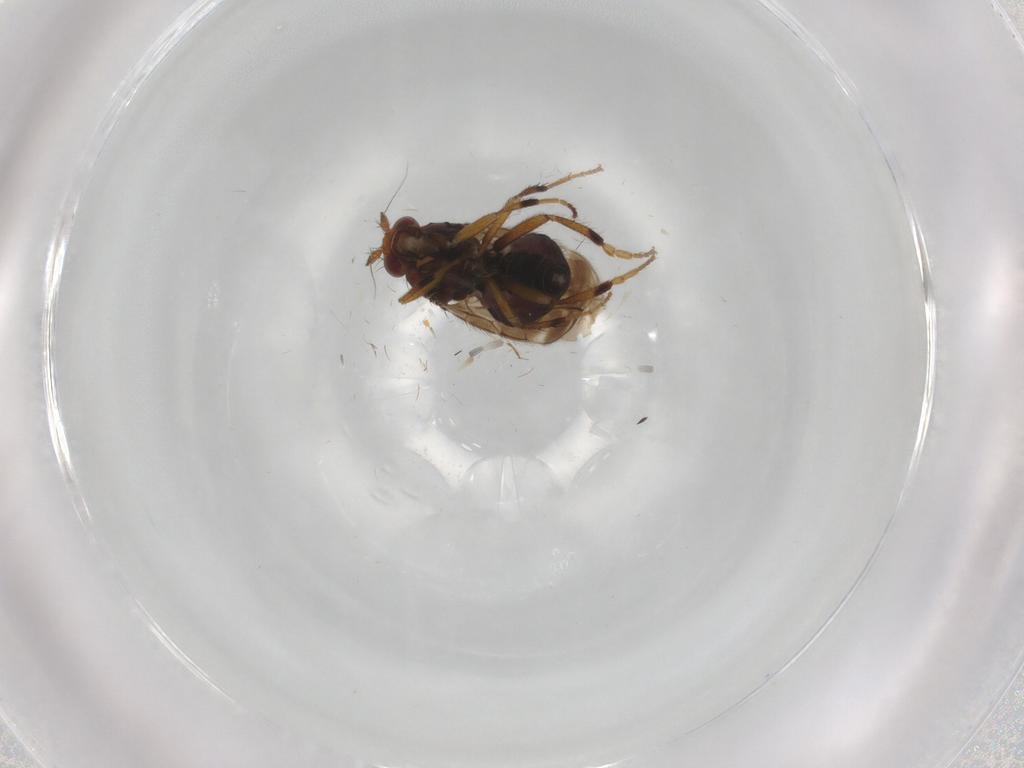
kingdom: Animalia
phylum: Arthropoda
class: Insecta
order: Diptera
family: Sphaeroceridae
